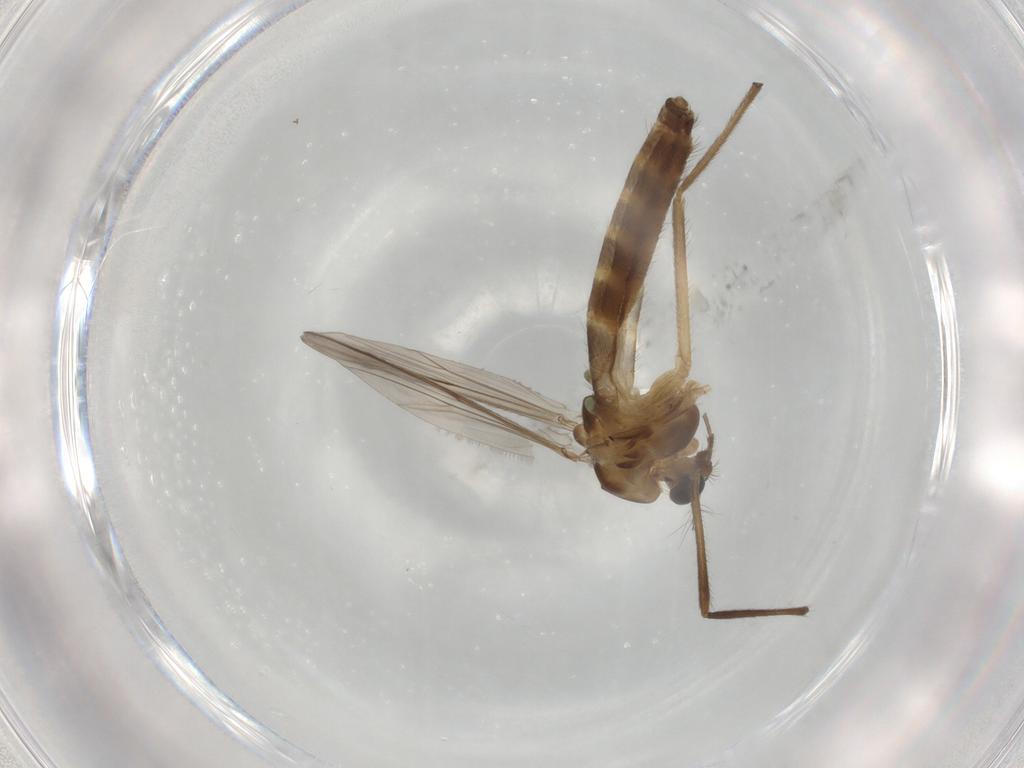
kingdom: Animalia
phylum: Arthropoda
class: Insecta
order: Diptera
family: Chironomidae
